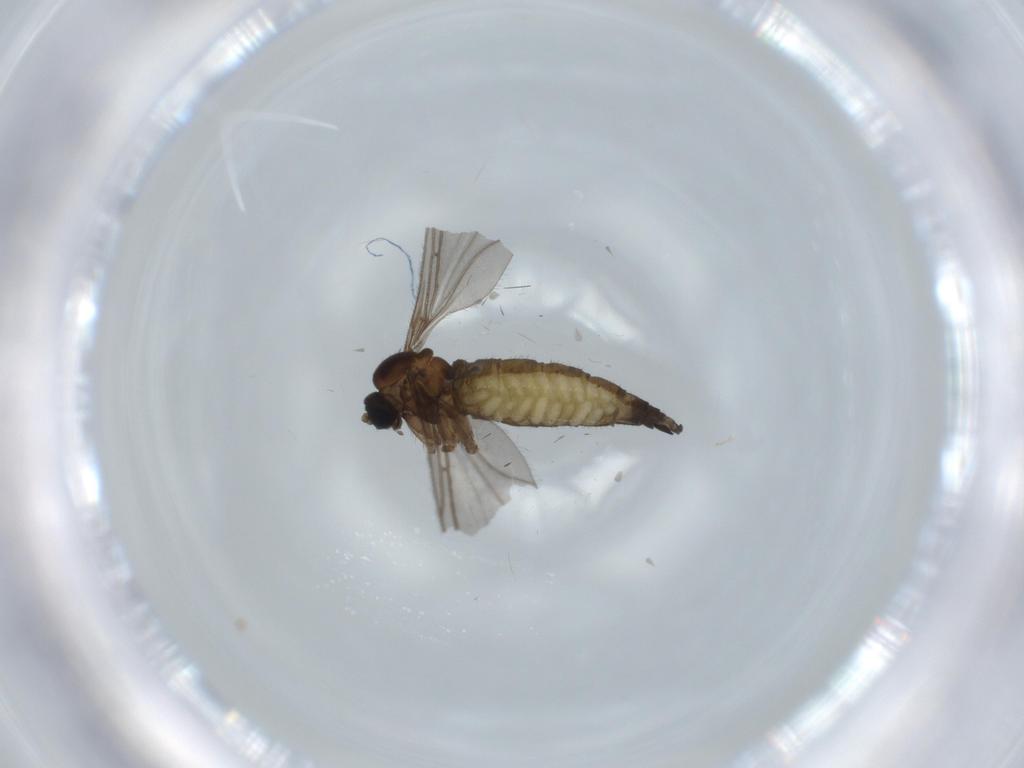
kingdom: Animalia
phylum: Arthropoda
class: Insecta
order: Diptera
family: Sciaridae
